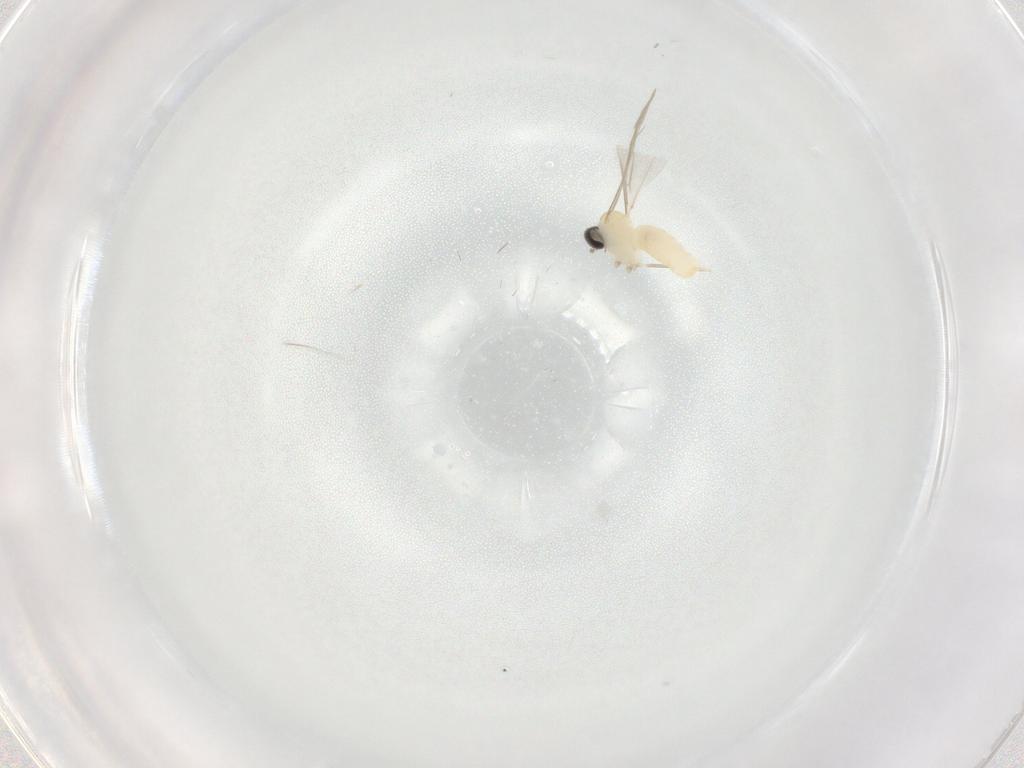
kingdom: Animalia
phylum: Arthropoda
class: Insecta
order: Diptera
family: Cecidomyiidae
